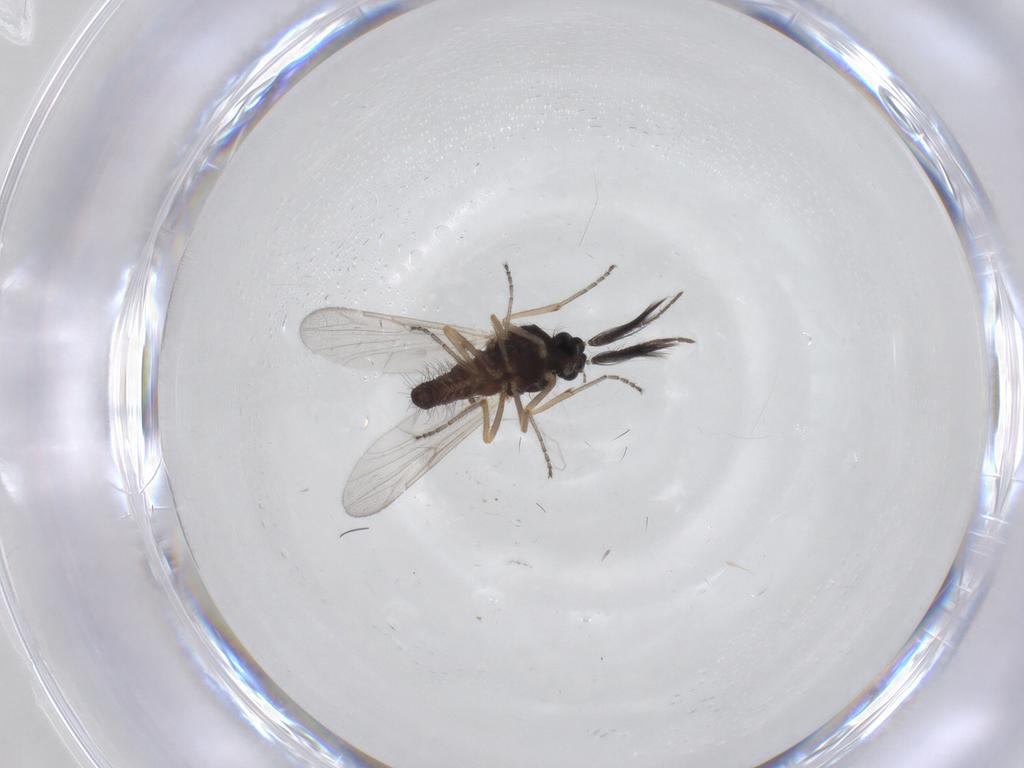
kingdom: Animalia
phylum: Arthropoda
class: Insecta
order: Diptera
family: Ceratopogonidae
